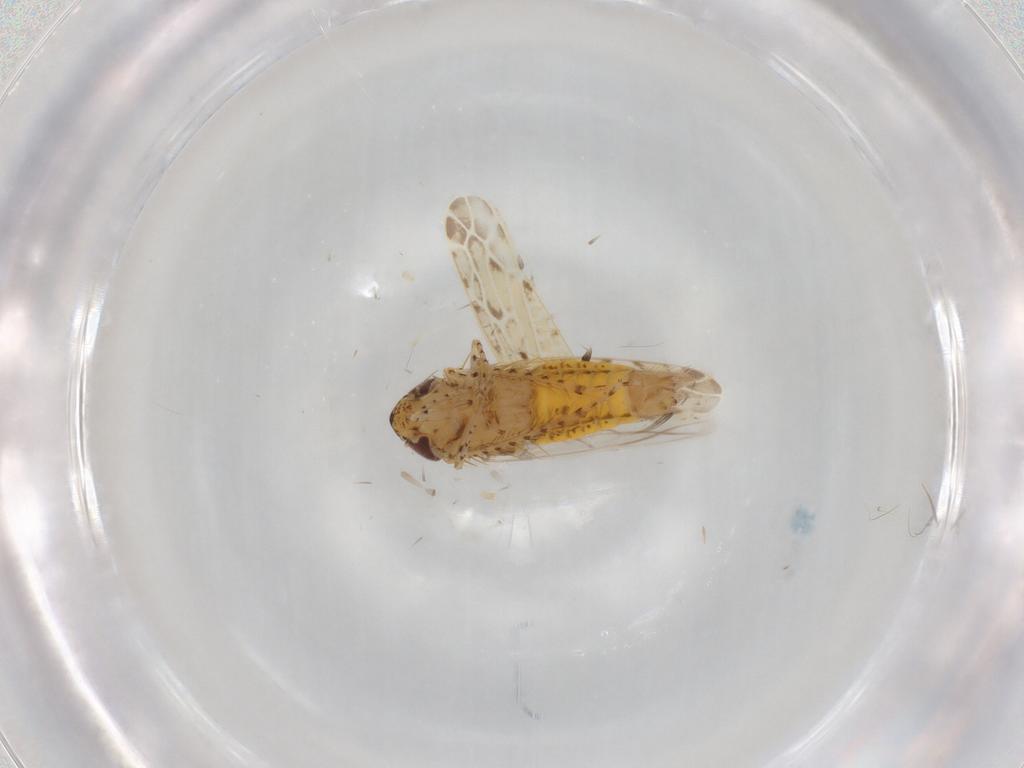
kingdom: Animalia
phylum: Arthropoda
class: Insecta
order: Hemiptera
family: Cicadellidae
